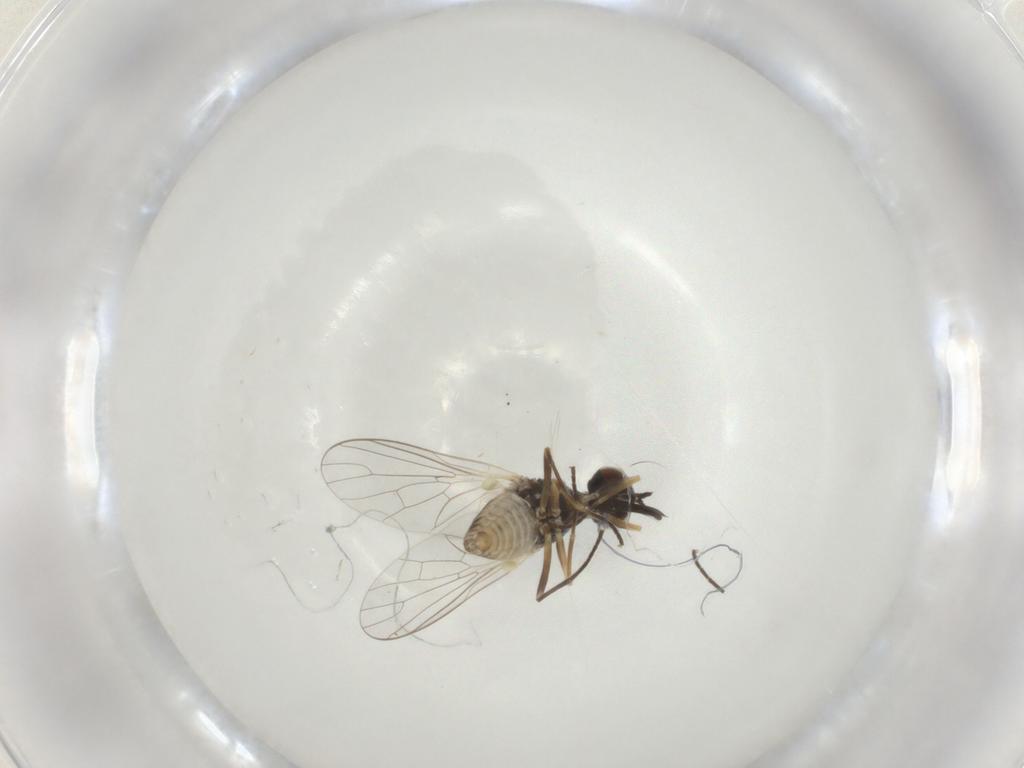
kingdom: Animalia
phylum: Arthropoda
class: Insecta
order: Diptera
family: Bombyliidae
